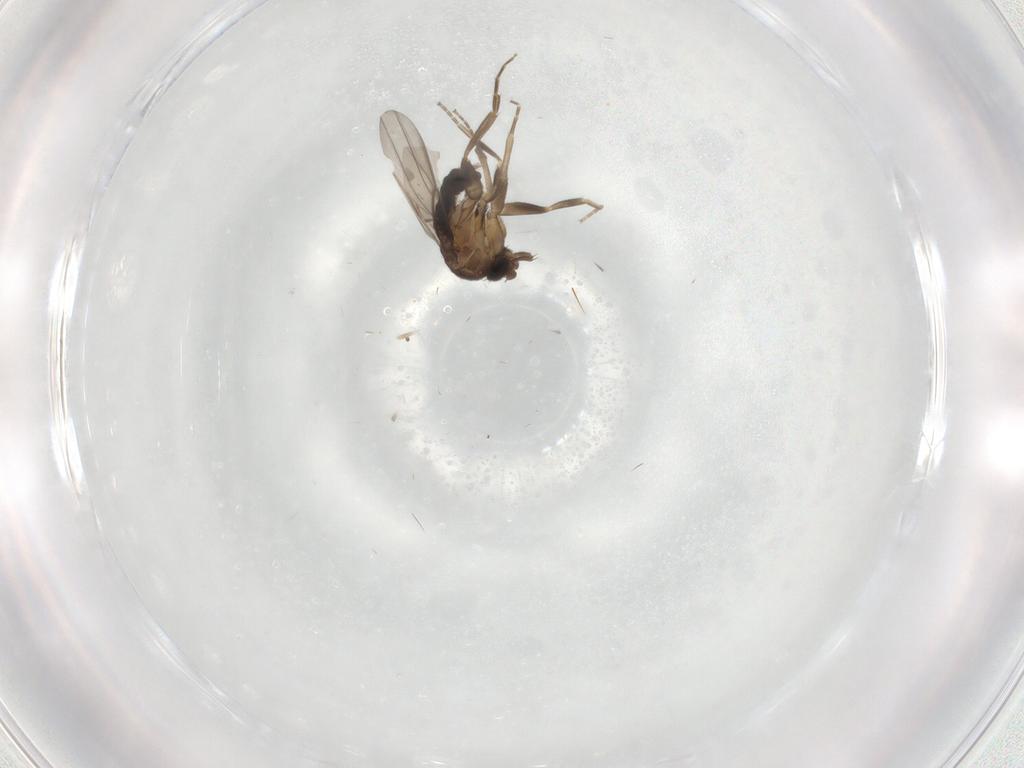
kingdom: Animalia
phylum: Arthropoda
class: Insecta
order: Diptera
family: Phoridae
